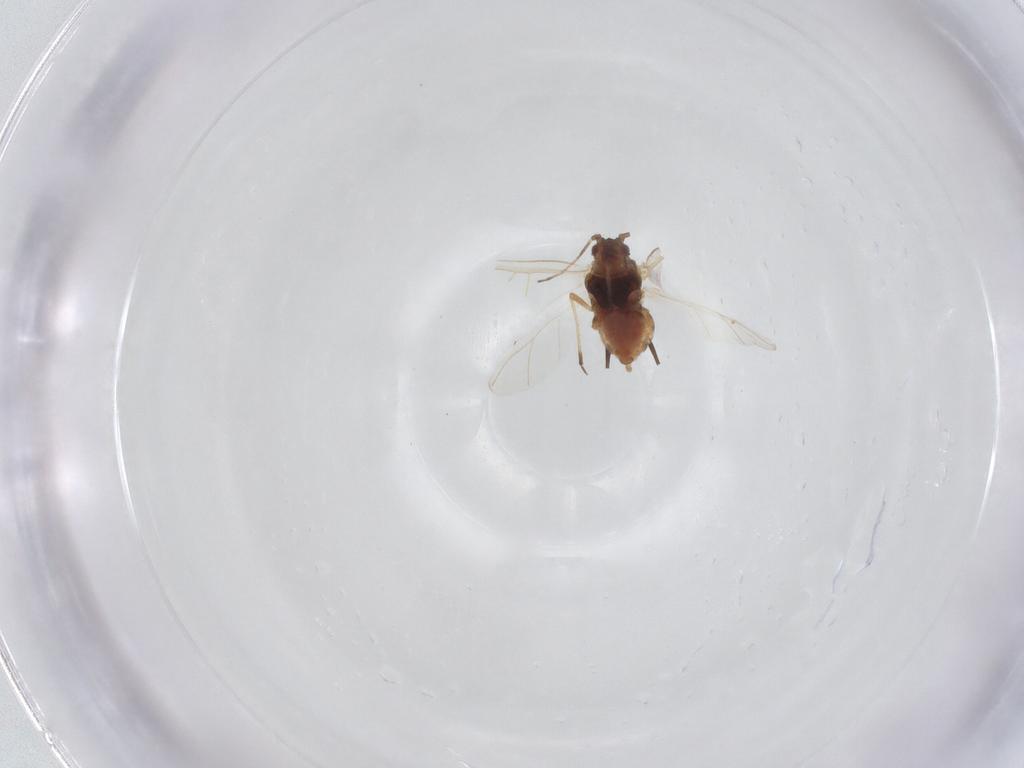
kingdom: Animalia
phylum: Arthropoda
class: Insecta
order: Hemiptera
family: Aphididae
